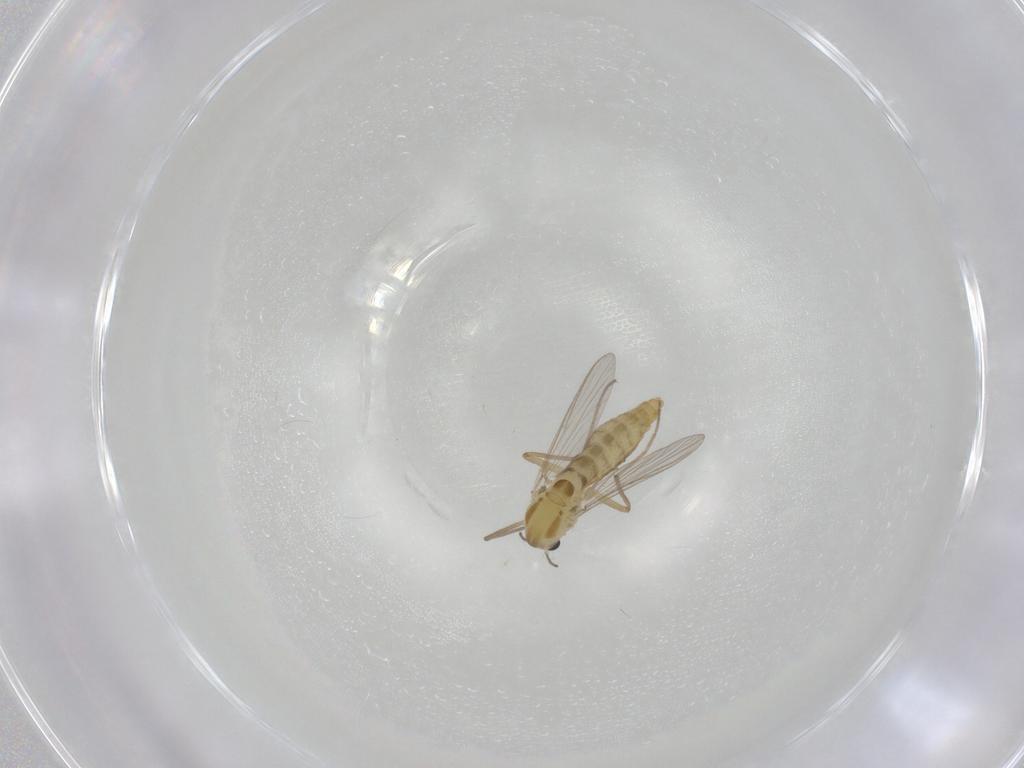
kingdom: Animalia
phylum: Arthropoda
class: Insecta
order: Diptera
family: Chironomidae
